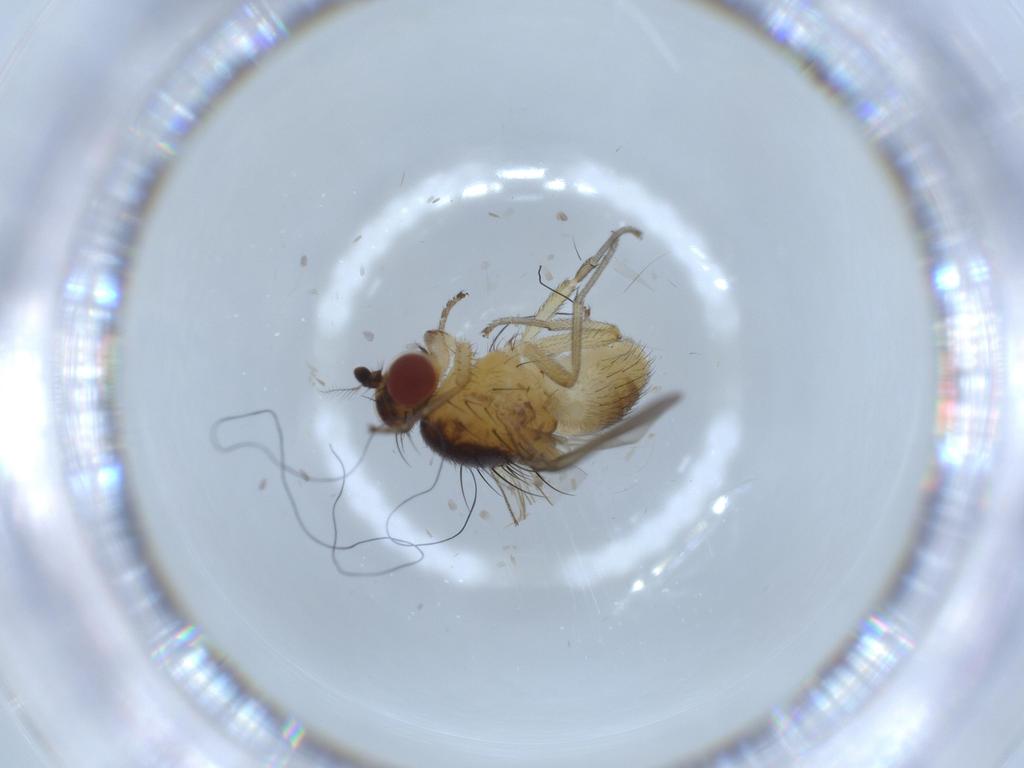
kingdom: Animalia
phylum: Arthropoda
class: Insecta
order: Diptera
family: Lauxaniidae
